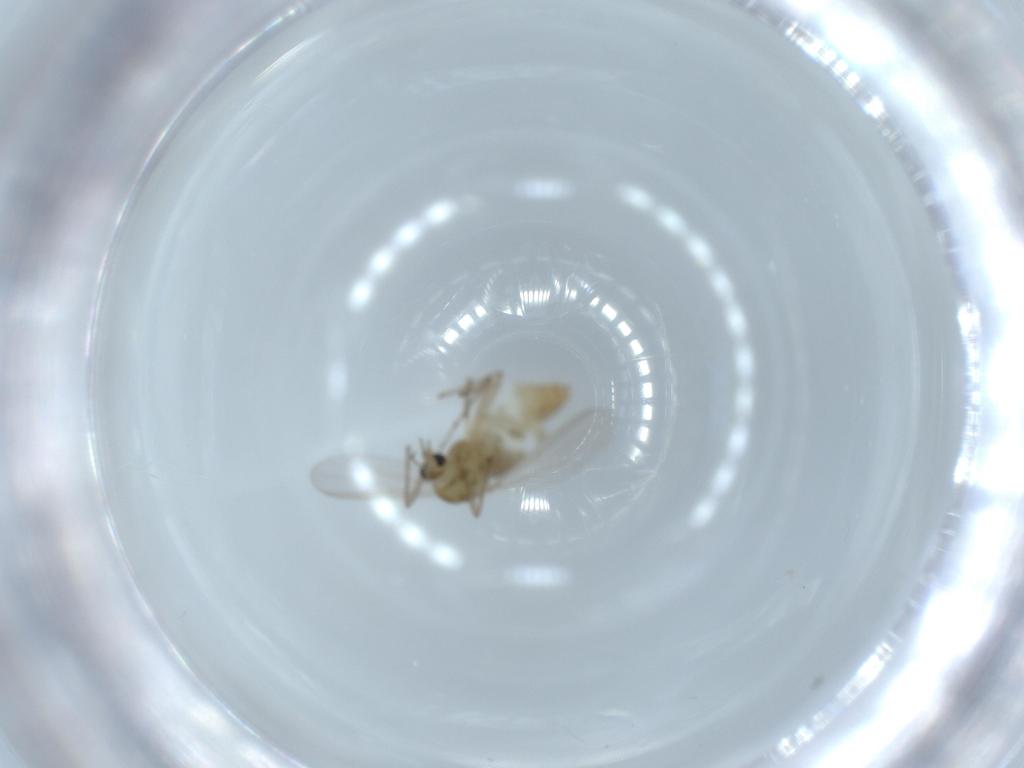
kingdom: Animalia
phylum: Arthropoda
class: Insecta
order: Diptera
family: Chironomidae
